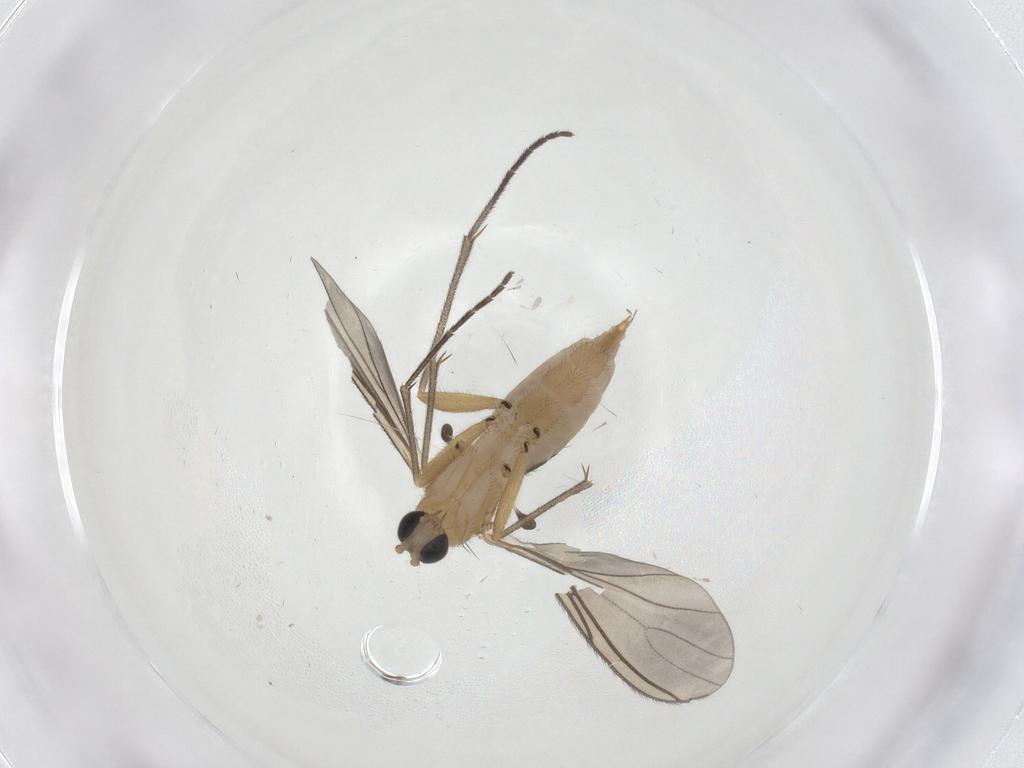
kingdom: Animalia
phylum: Arthropoda
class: Insecta
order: Diptera
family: Sciaridae
